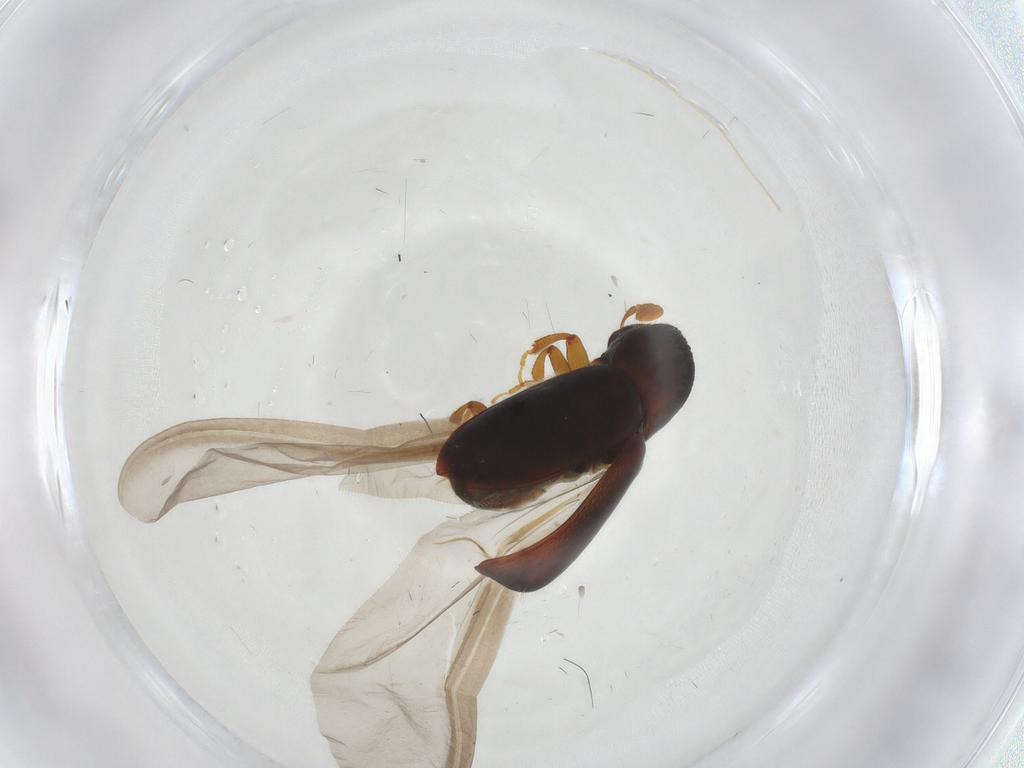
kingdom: Animalia
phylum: Arthropoda
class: Insecta
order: Coleoptera
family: Curculionidae
